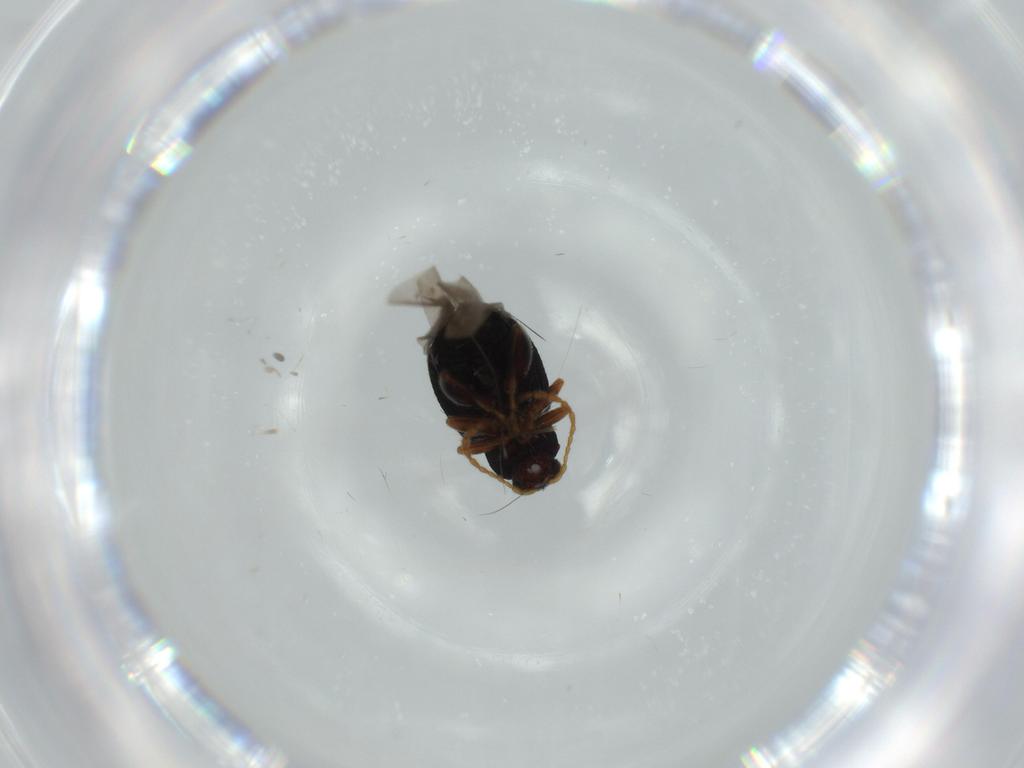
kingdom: Animalia
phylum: Arthropoda
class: Insecta
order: Coleoptera
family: Chrysomelidae
